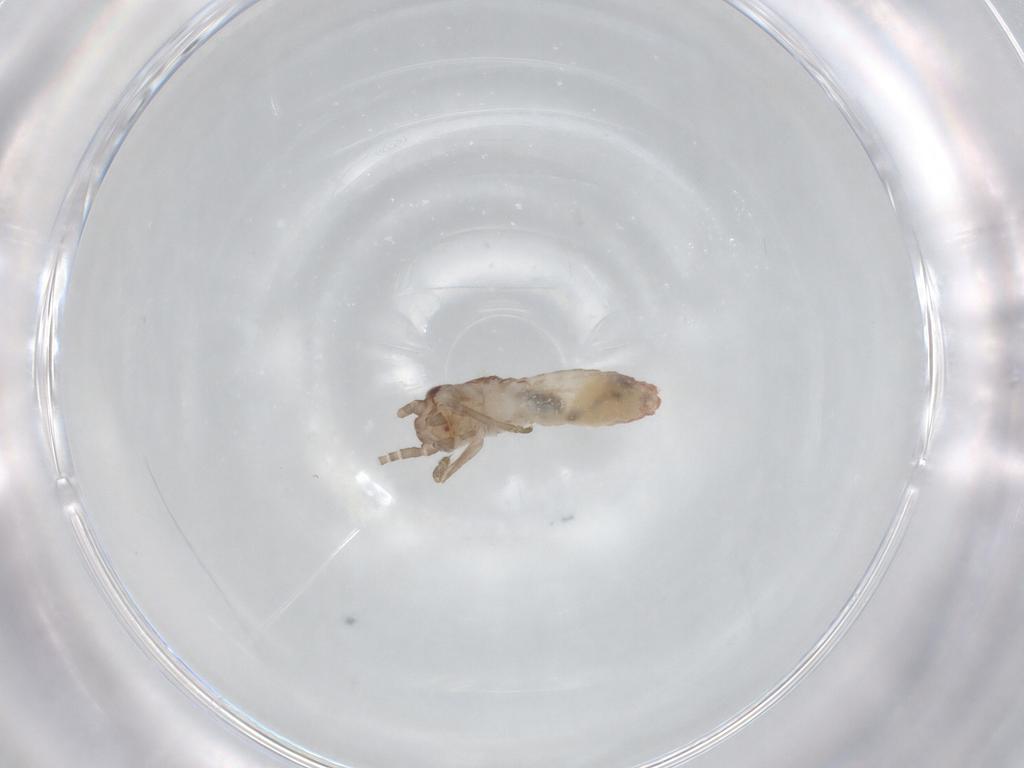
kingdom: Animalia
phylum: Arthropoda
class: Insecta
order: Orthoptera
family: Mogoplistidae
